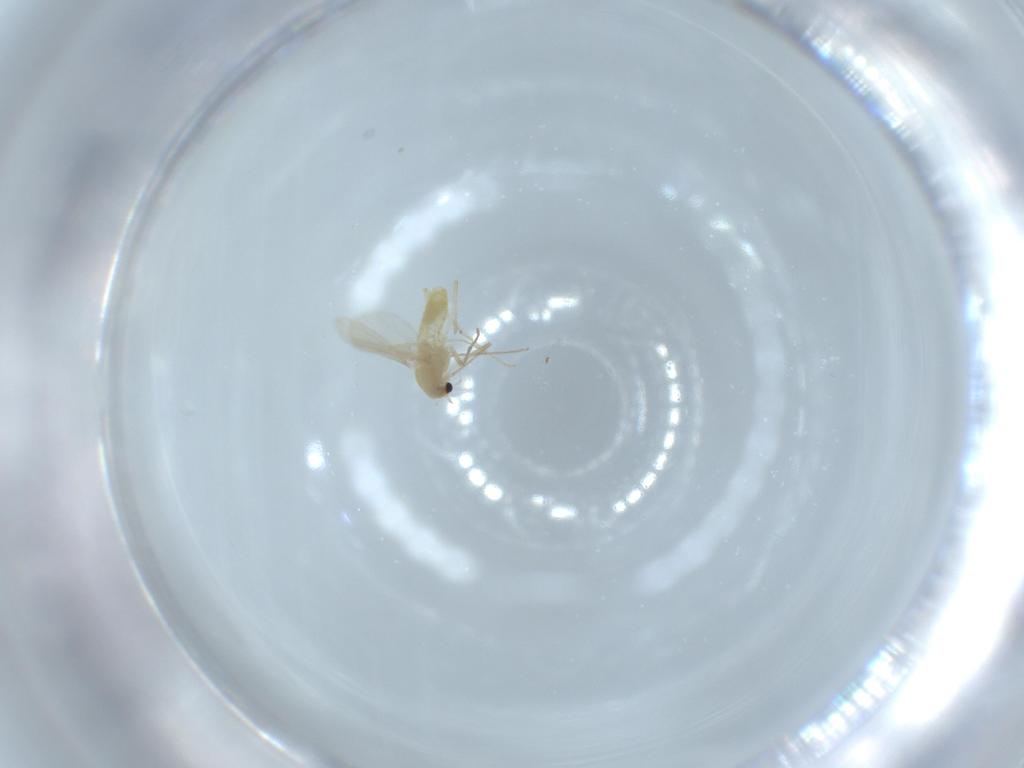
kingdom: Animalia
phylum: Arthropoda
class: Insecta
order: Diptera
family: Chironomidae
